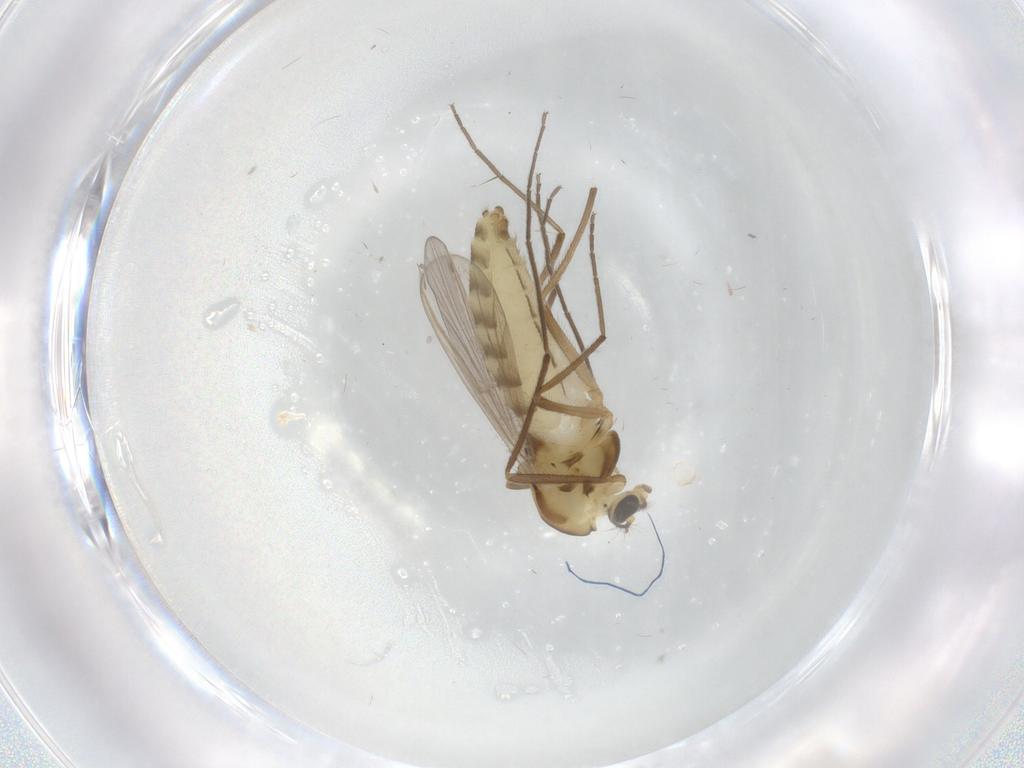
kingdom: Animalia
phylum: Arthropoda
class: Insecta
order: Diptera
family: Chironomidae
